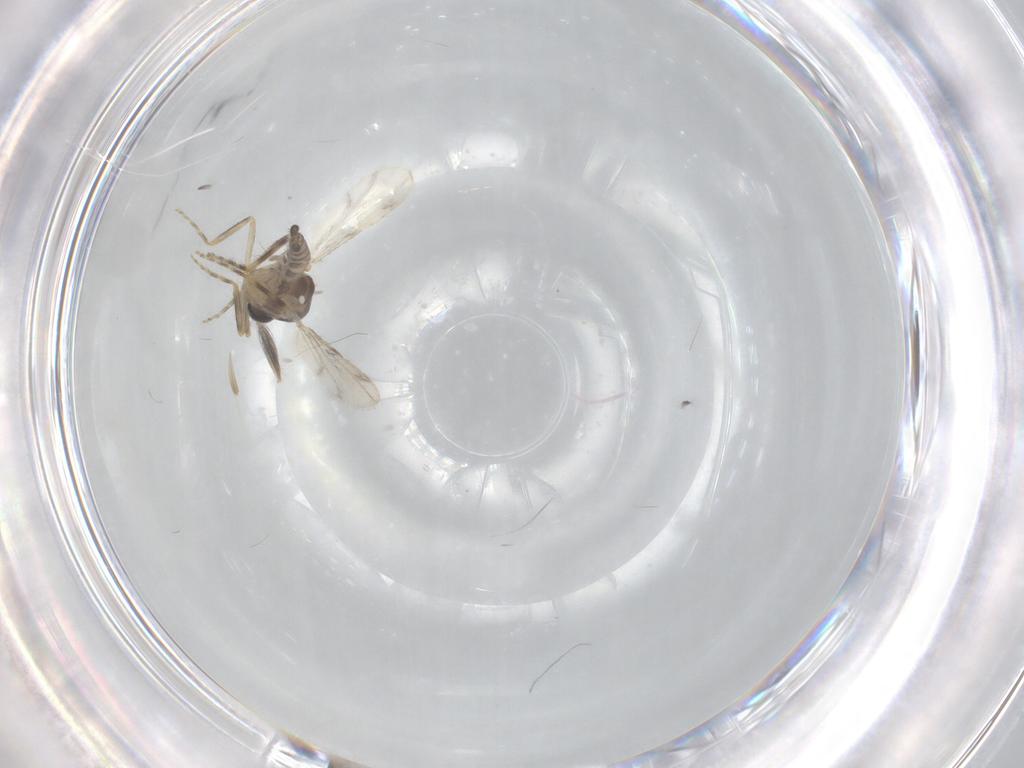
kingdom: Animalia
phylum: Arthropoda
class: Insecta
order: Diptera
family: Ceratopogonidae
